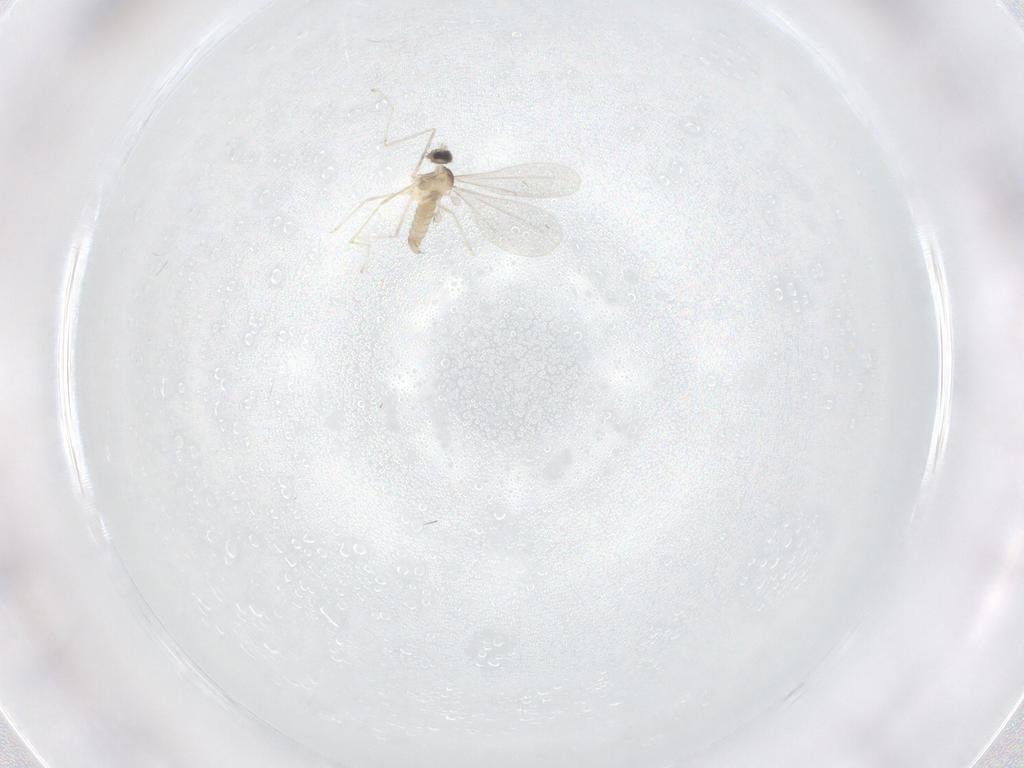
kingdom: Animalia
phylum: Arthropoda
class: Insecta
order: Diptera
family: Cecidomyiidae
